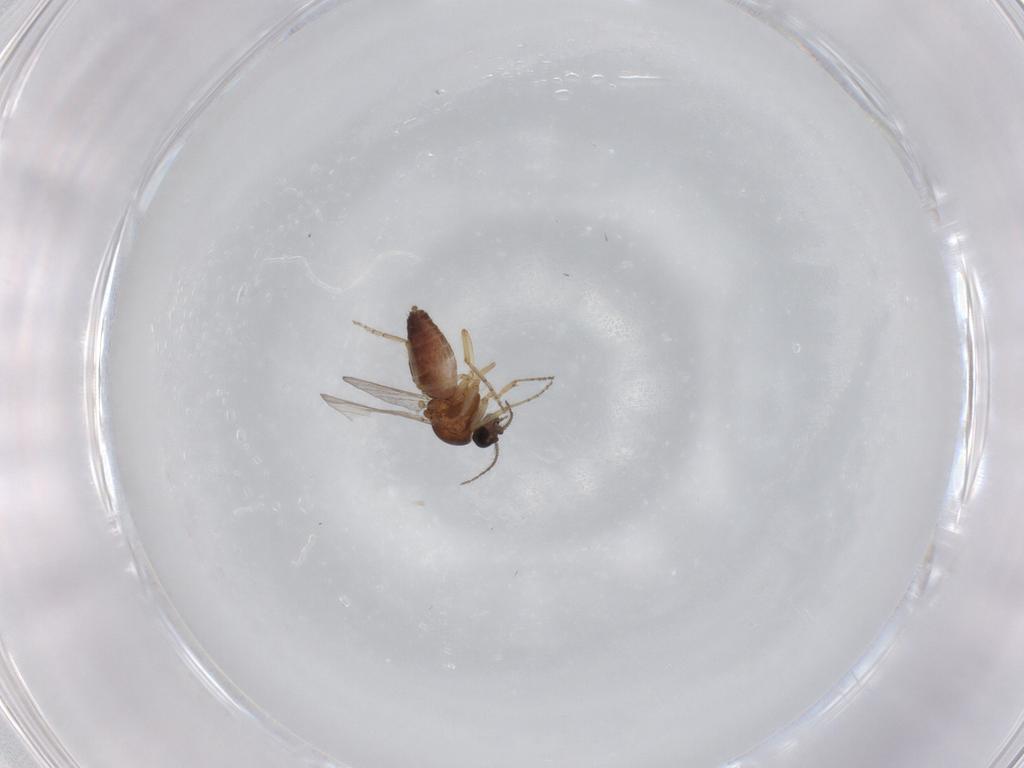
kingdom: Animalia
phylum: Arthropoda
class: Insecta
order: Diptera
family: Ceratopogonidae
